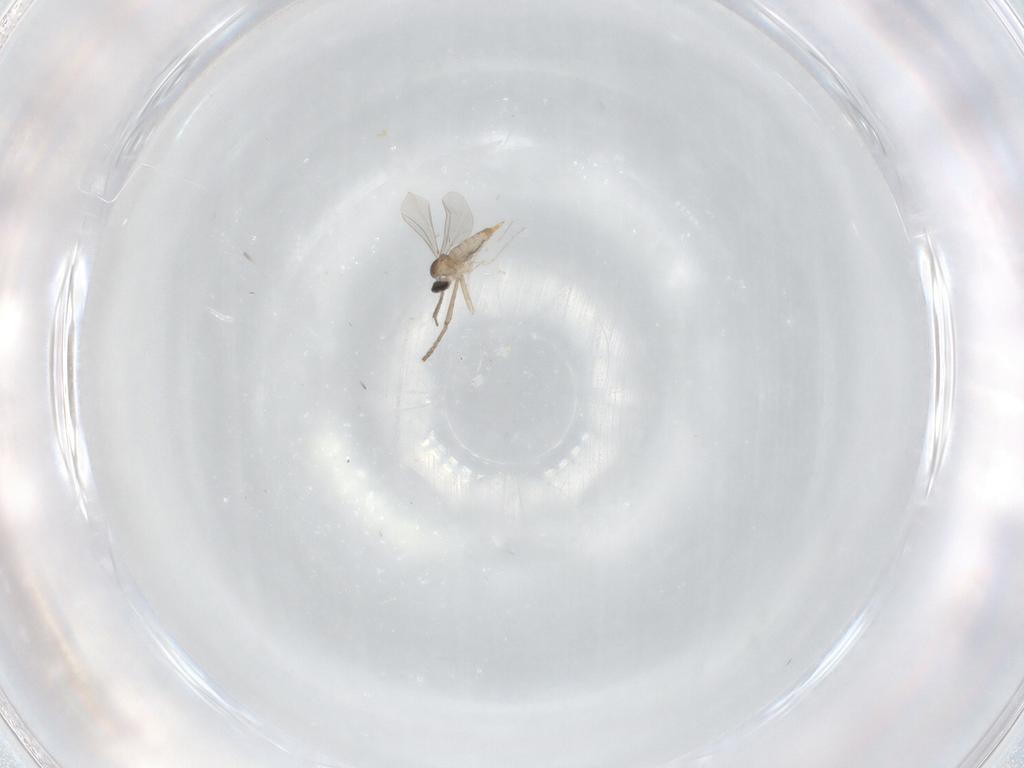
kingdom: Animalia
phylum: Arthropoda
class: Insecta
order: Diptera
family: Psychodidae
